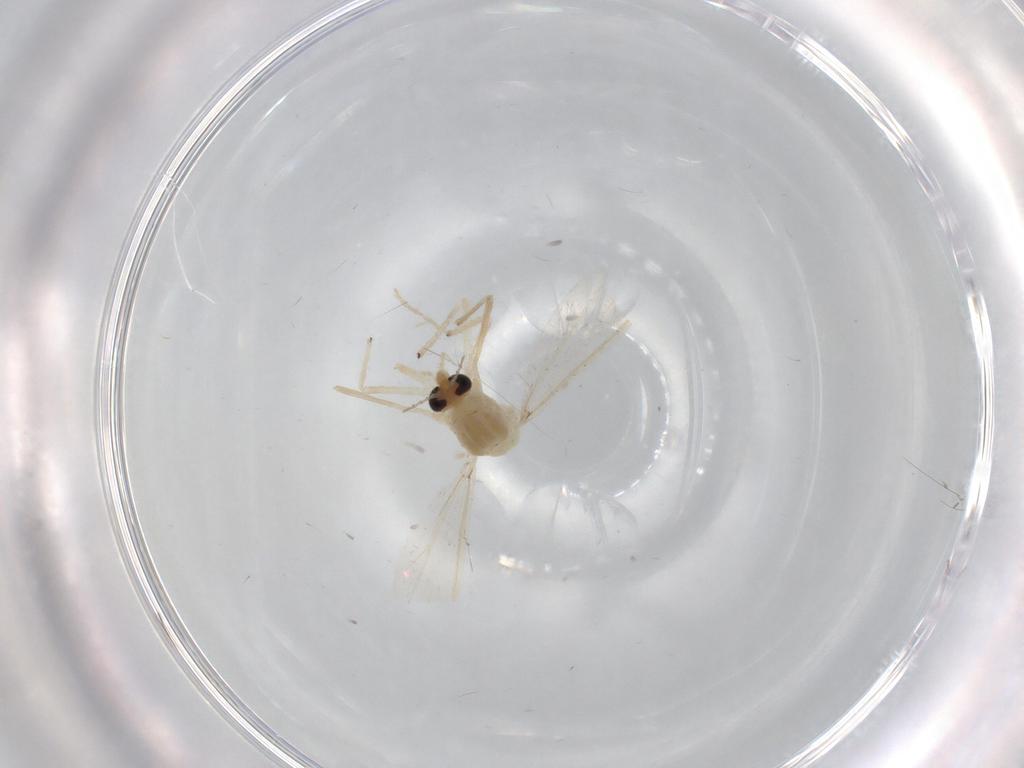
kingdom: Animalia
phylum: Arthropoda
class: Insecta
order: Diptera
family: Chironomidae
